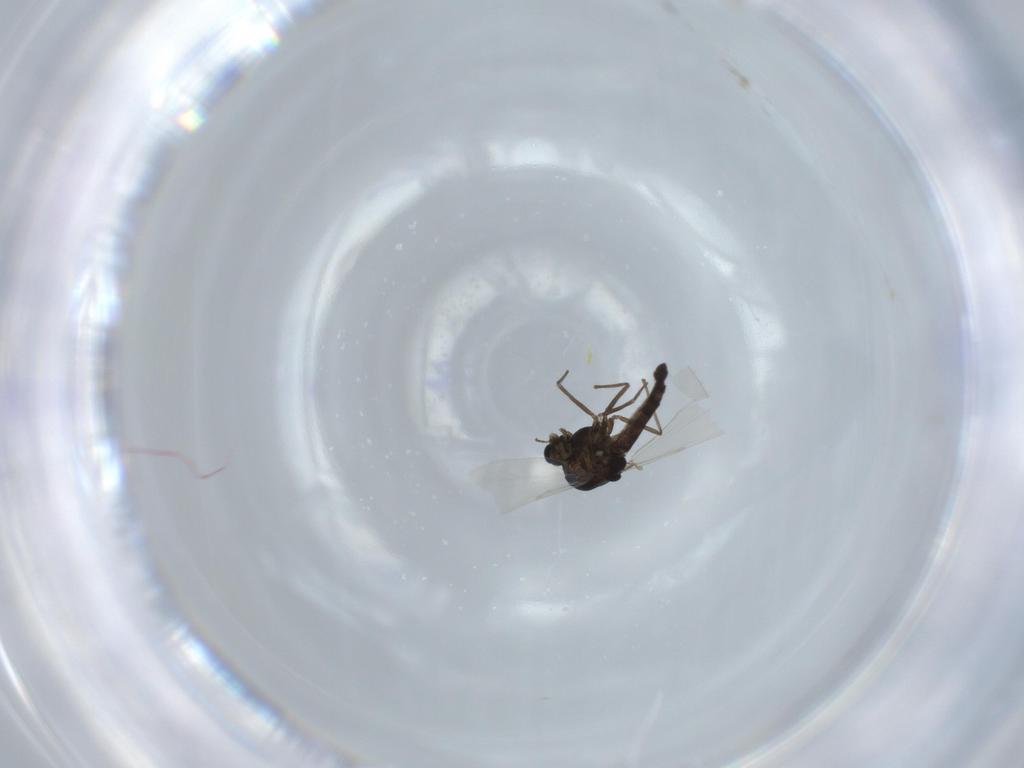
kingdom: Animalia
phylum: Arthropoda
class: Insecta
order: Diptera
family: Chironomidae
